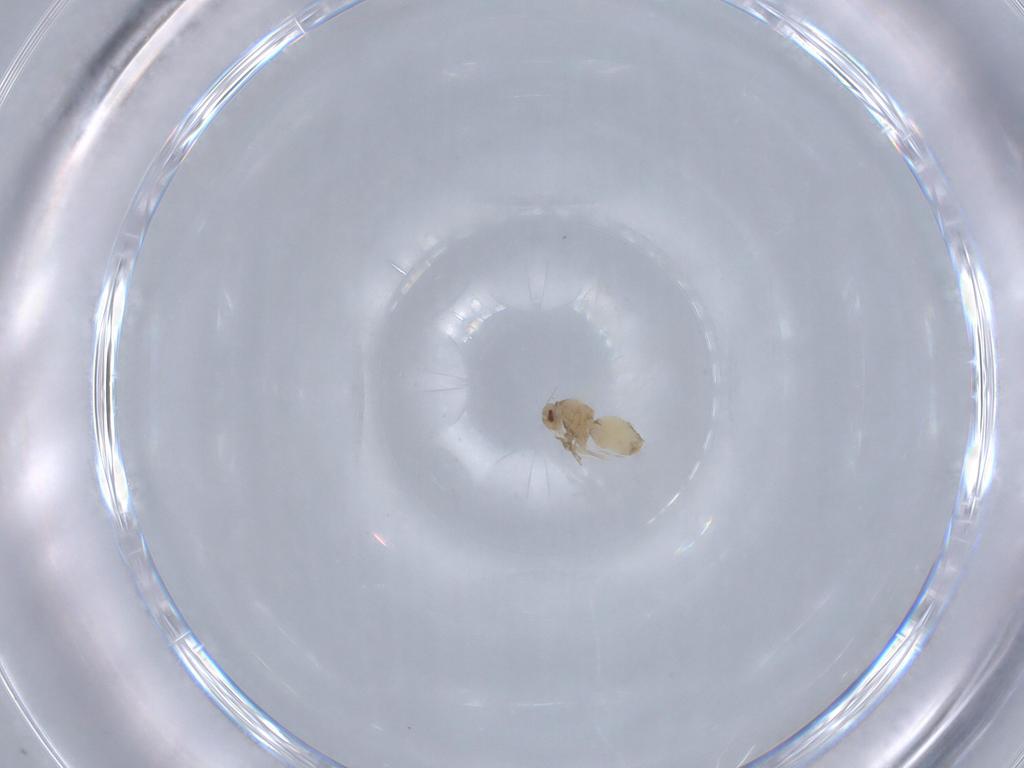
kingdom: Animalia
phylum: Arthropoda
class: Insecta
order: Hemiptera
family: Aleyrodidae
